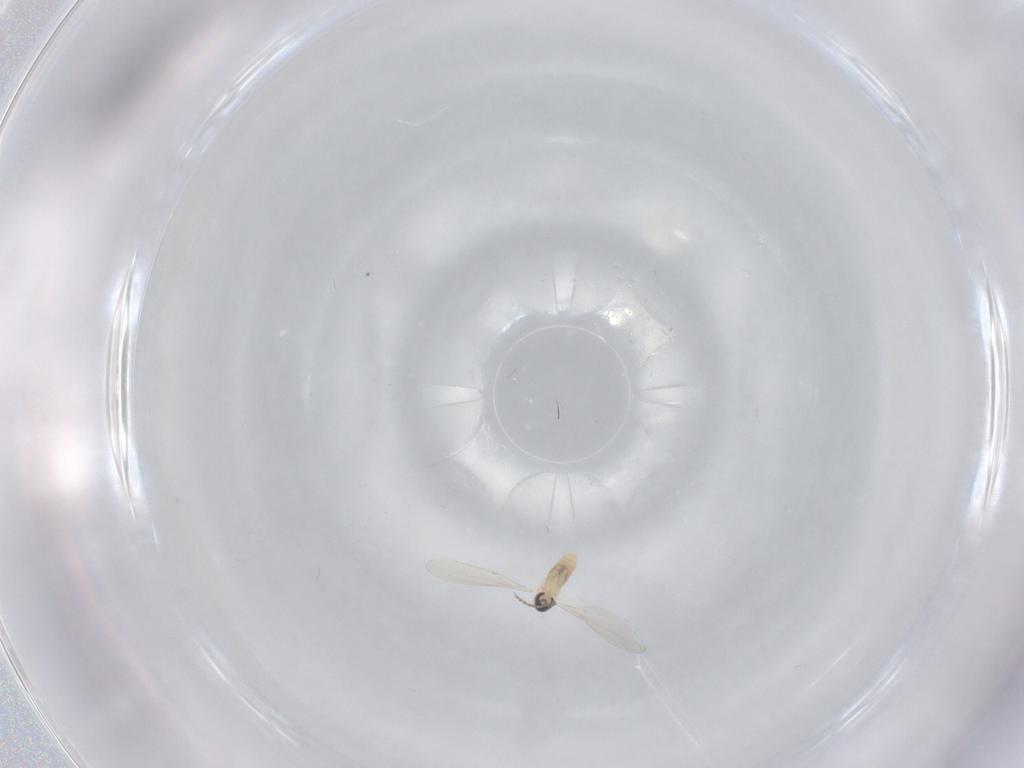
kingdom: Animalia
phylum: Arthropoda
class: Insecta
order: Diptera
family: Cecidomyiidae
